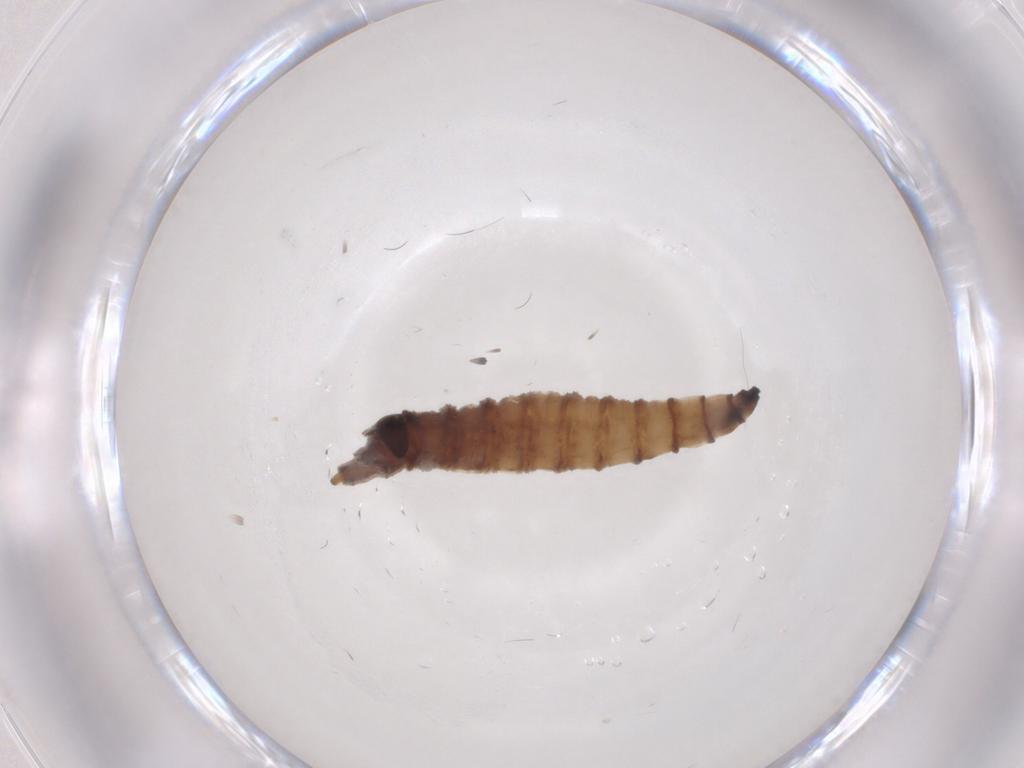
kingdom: Animalia
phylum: Arthropoda
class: Insecta
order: Diptera
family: Drosophilidae
